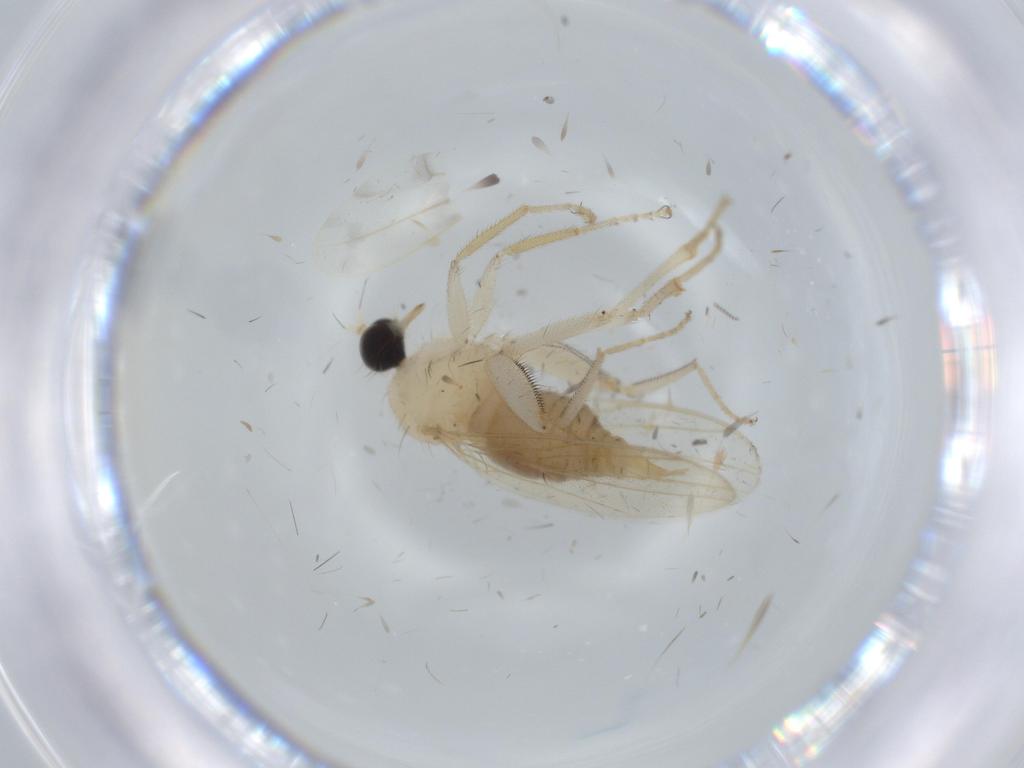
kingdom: Animalia
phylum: Arthropoda
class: Insecta
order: Diptera
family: Hybotidae
